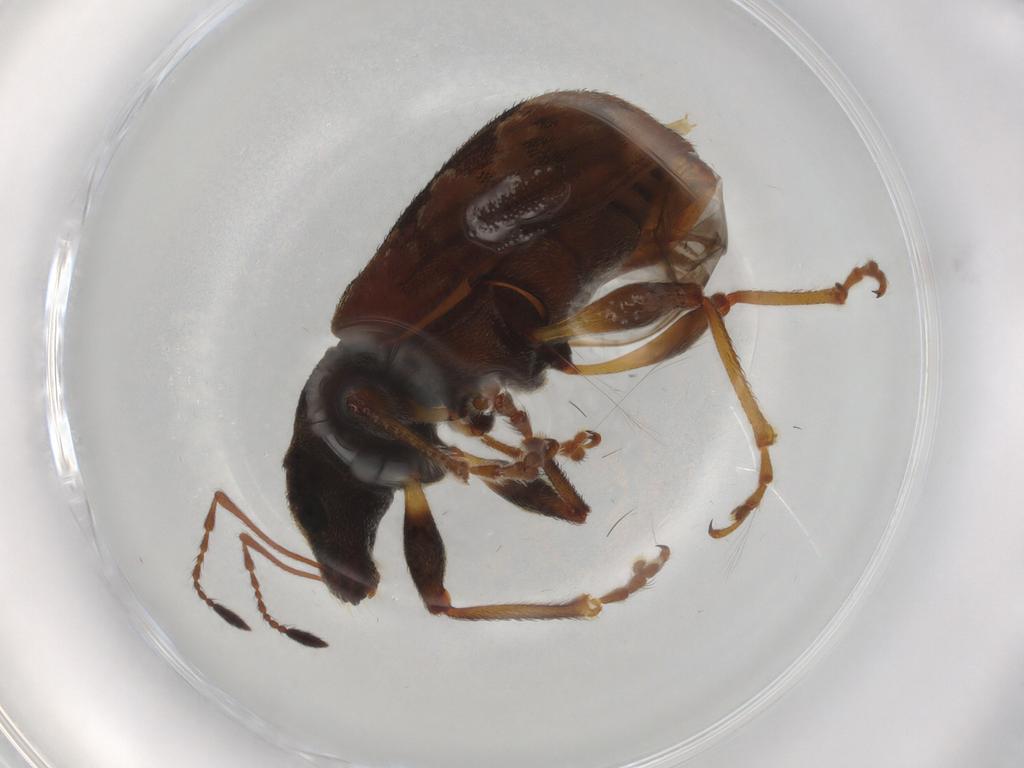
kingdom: Animalia
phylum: Arthropoda
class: Insecta
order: Coleoptera
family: Curculionidae
